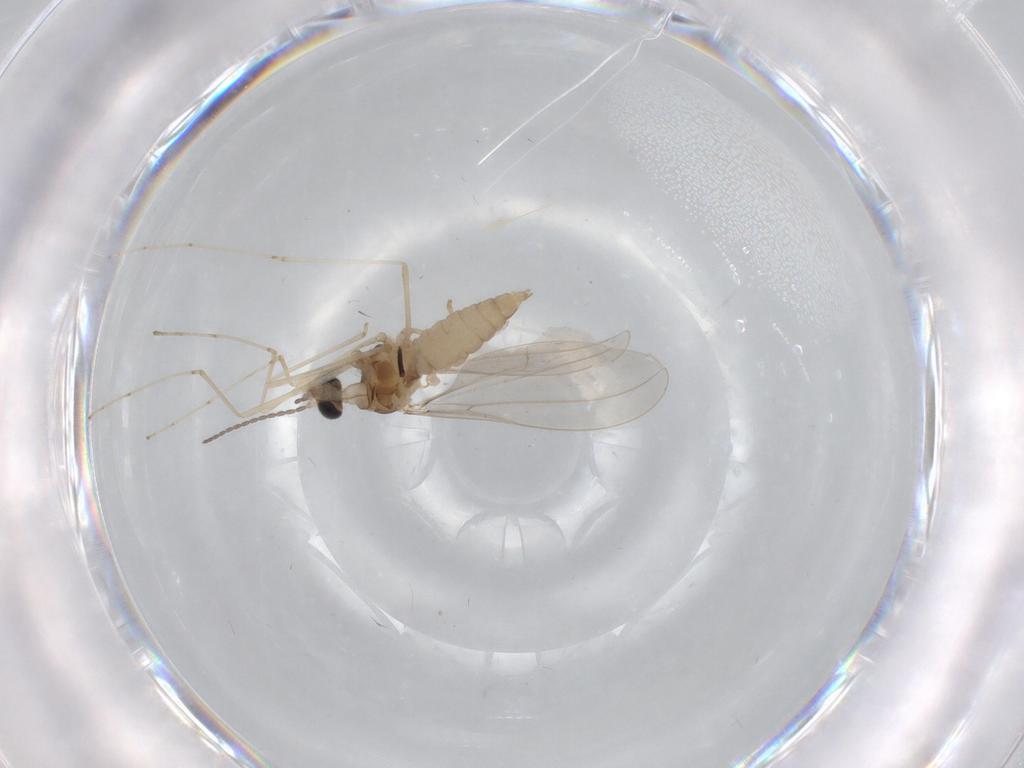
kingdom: Animalia
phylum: Arthropoda
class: Insecta
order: Diptera
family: Cecidomyiidae
